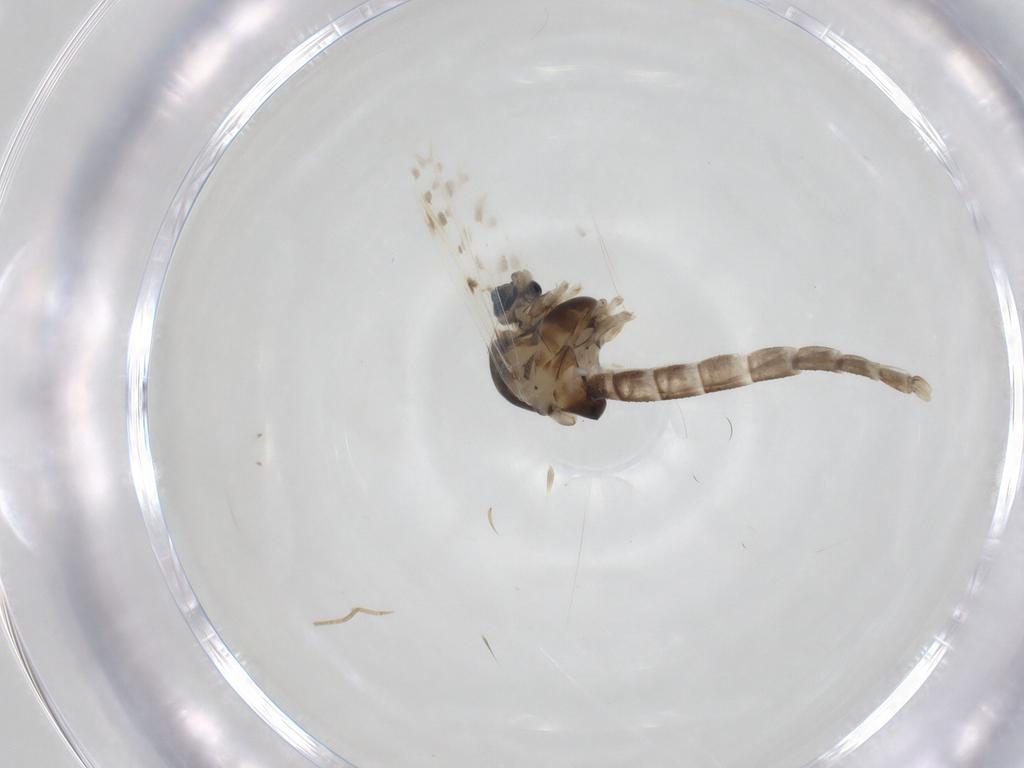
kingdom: Animalia
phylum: Arthropoda
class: Insecta
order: Diptera
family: Chironomidae
